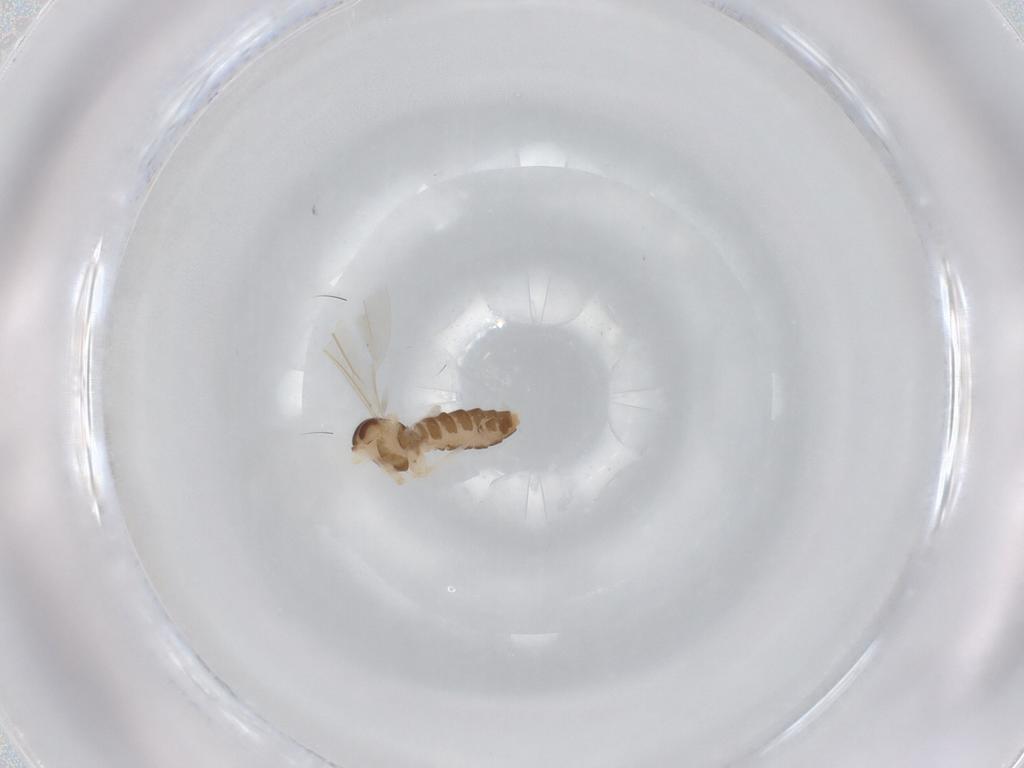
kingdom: Animalia
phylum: Arthropoda
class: Insecta
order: Diptera
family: Cecidomyiidae
